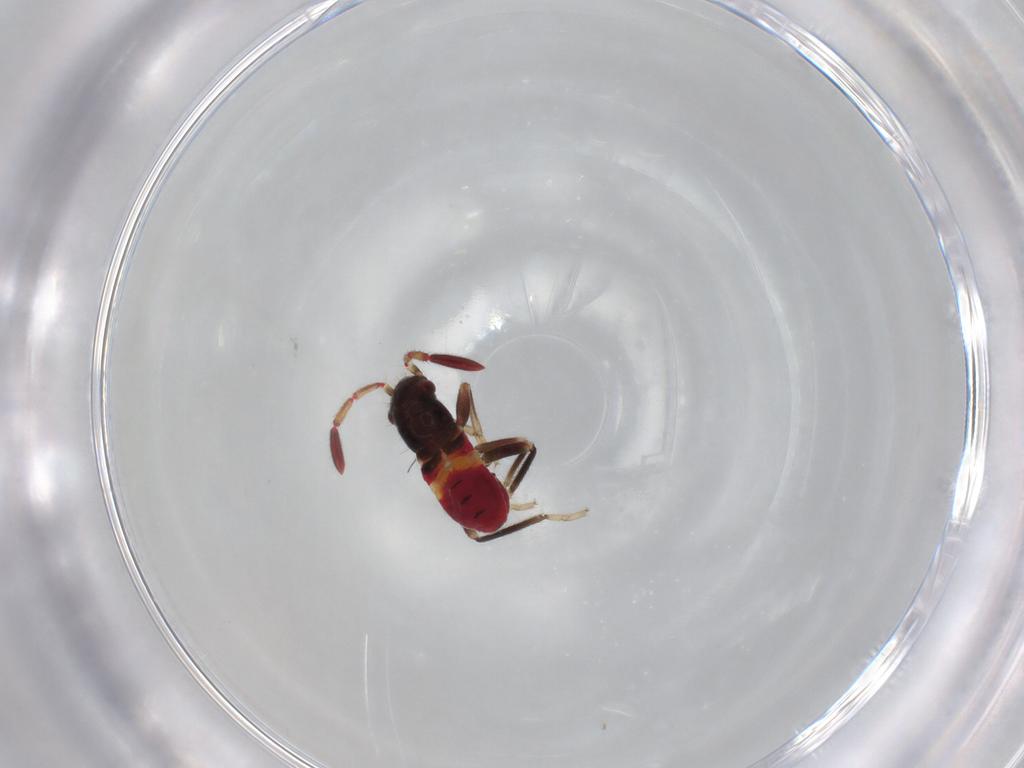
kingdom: Animalia
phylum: Arthropoda
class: Insecta
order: Hemiptera
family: Rhyparochromidae
